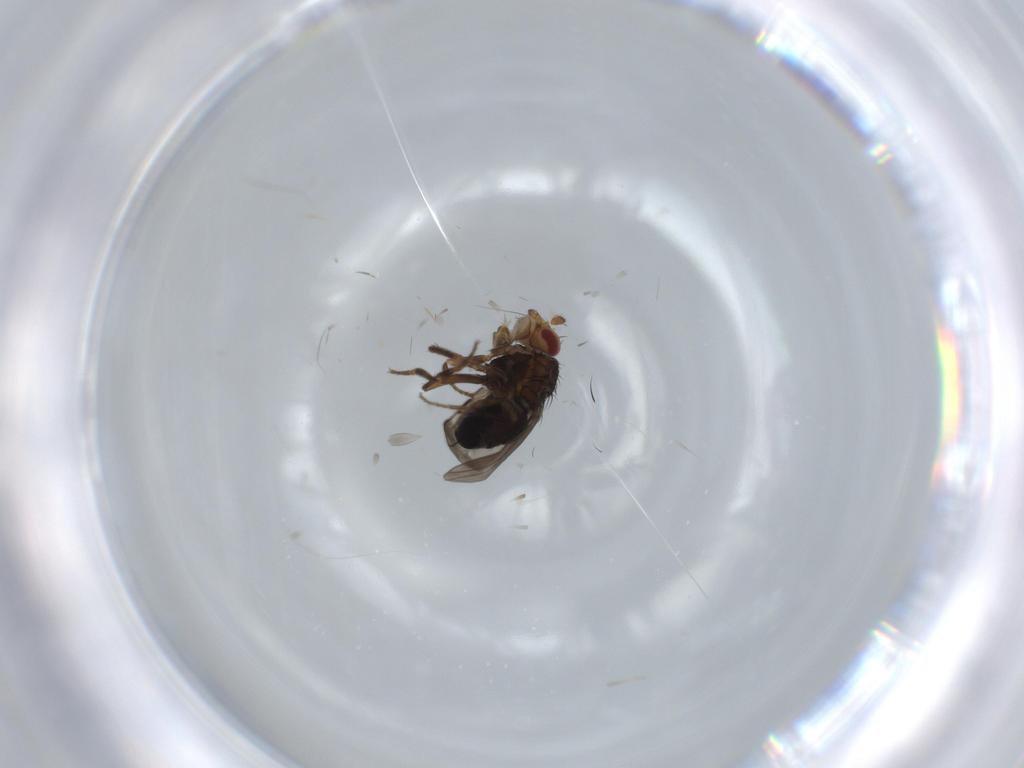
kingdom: Animalia
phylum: Arthropoda
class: Insecta
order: Diptera
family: Sphaeroceridae
